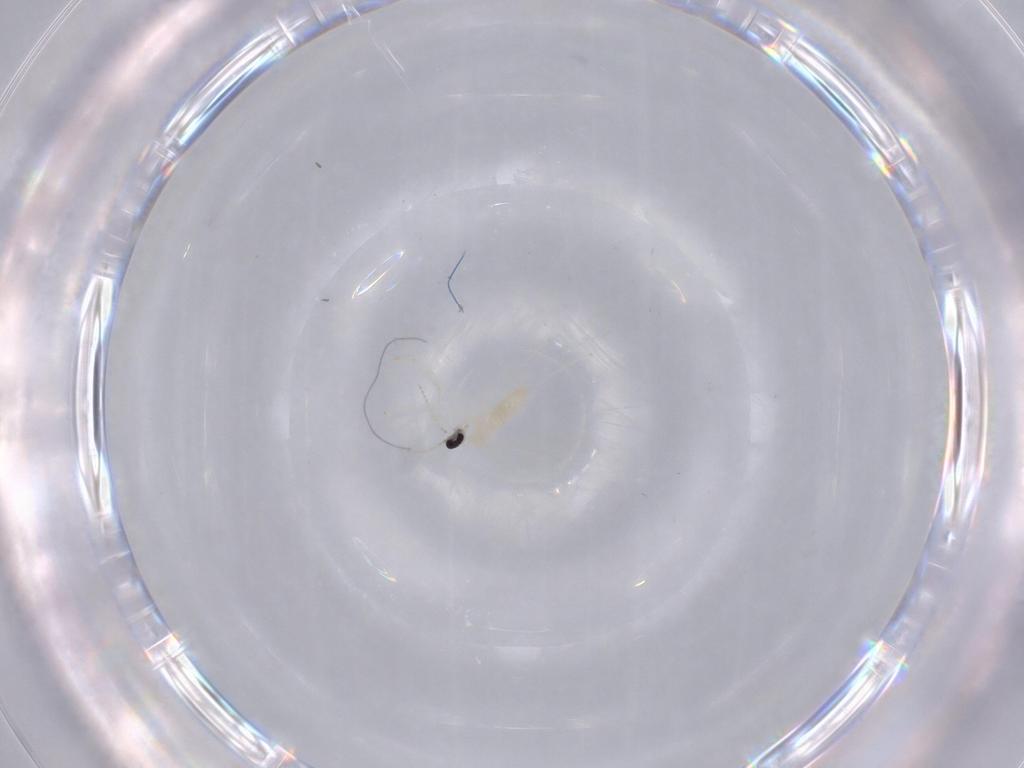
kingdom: Animalia
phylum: Arthropoda
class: Insecta
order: Diptera
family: Cecidomyiidae
